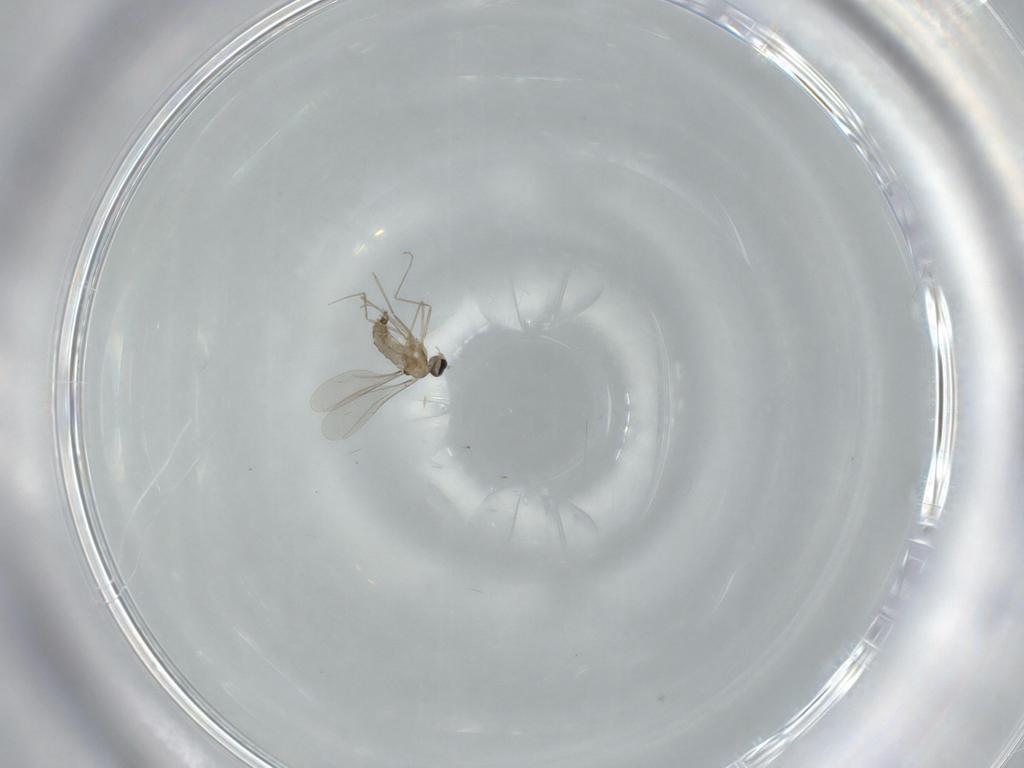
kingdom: Animalia
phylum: Arthropoda
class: Insecta
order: Diptera
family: Cecidomyiidae
